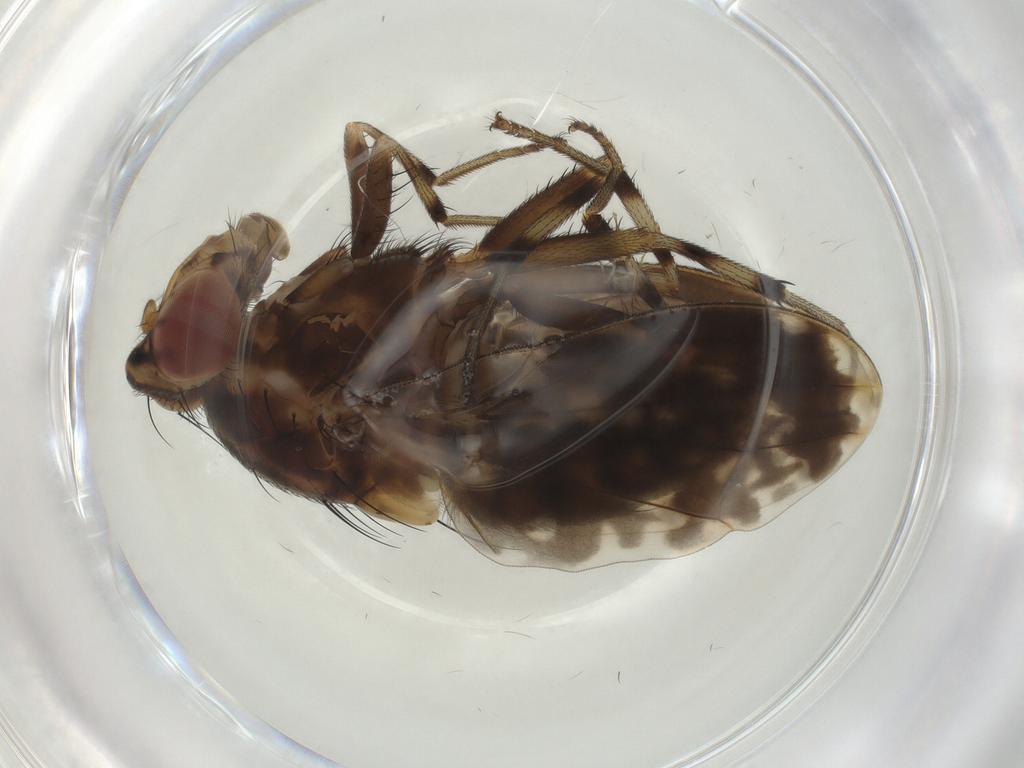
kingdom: Animalia
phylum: Arthropoda
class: Insecta
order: Diptera
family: Lauxaniidae
